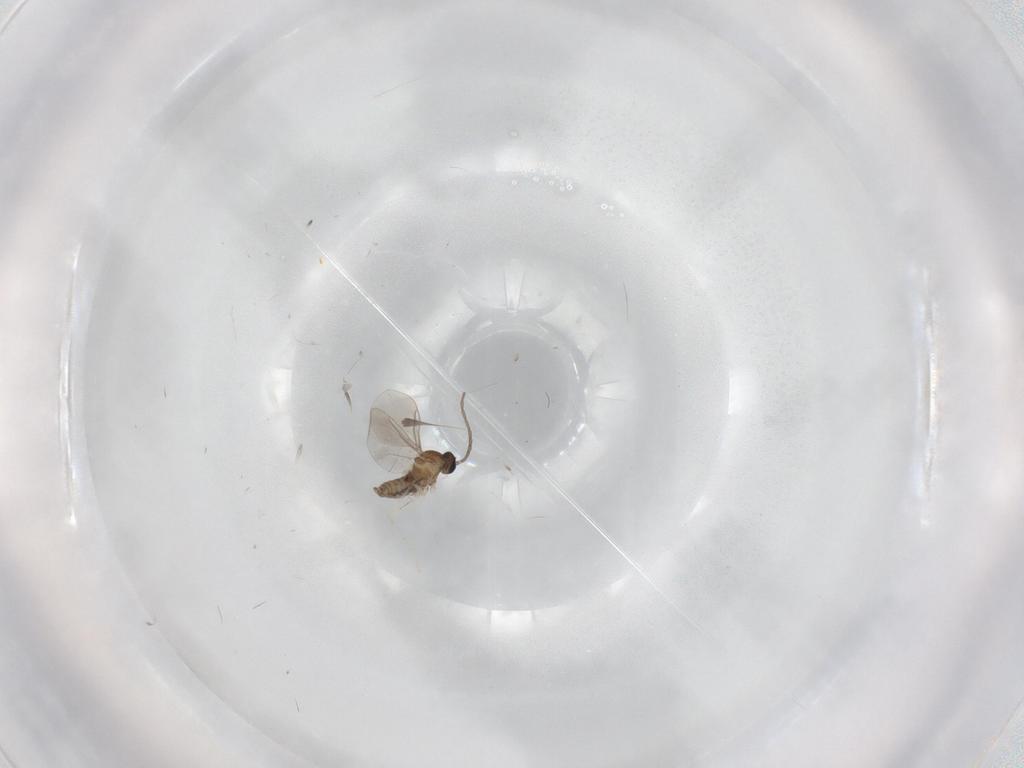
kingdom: Animalia
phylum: Arthropoda
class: Insecta
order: Diptera
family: Cecidomyiidae
